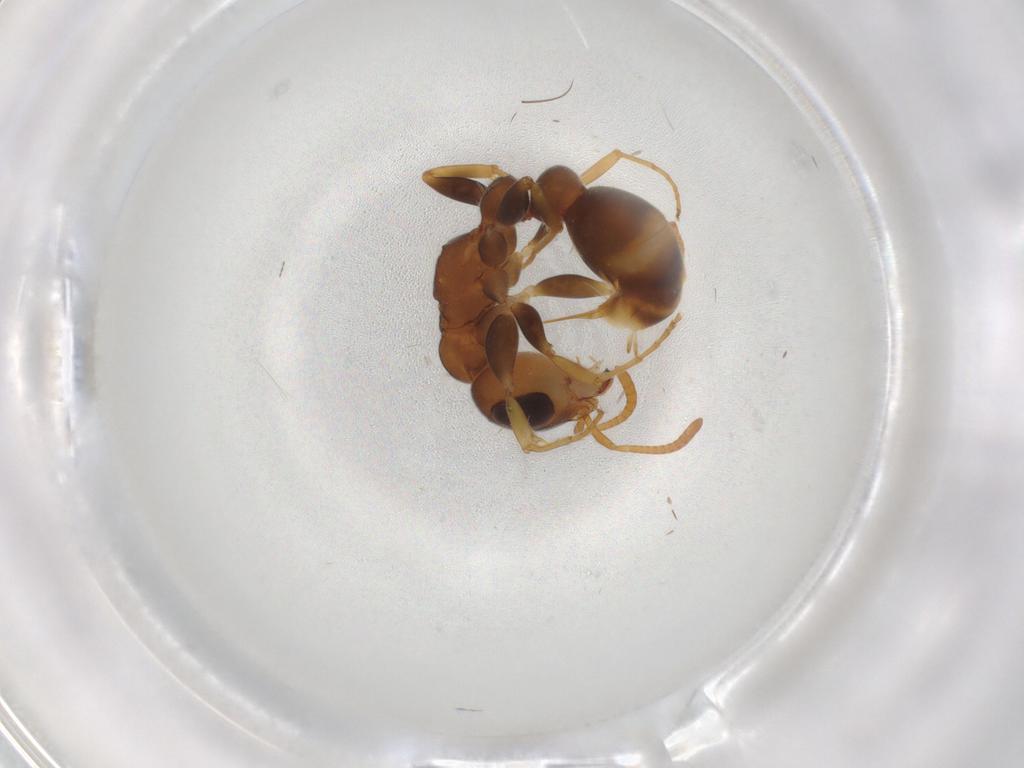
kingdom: Animalia
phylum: Arthropoda
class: Insecta
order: Hymenoptera
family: Formicidae
